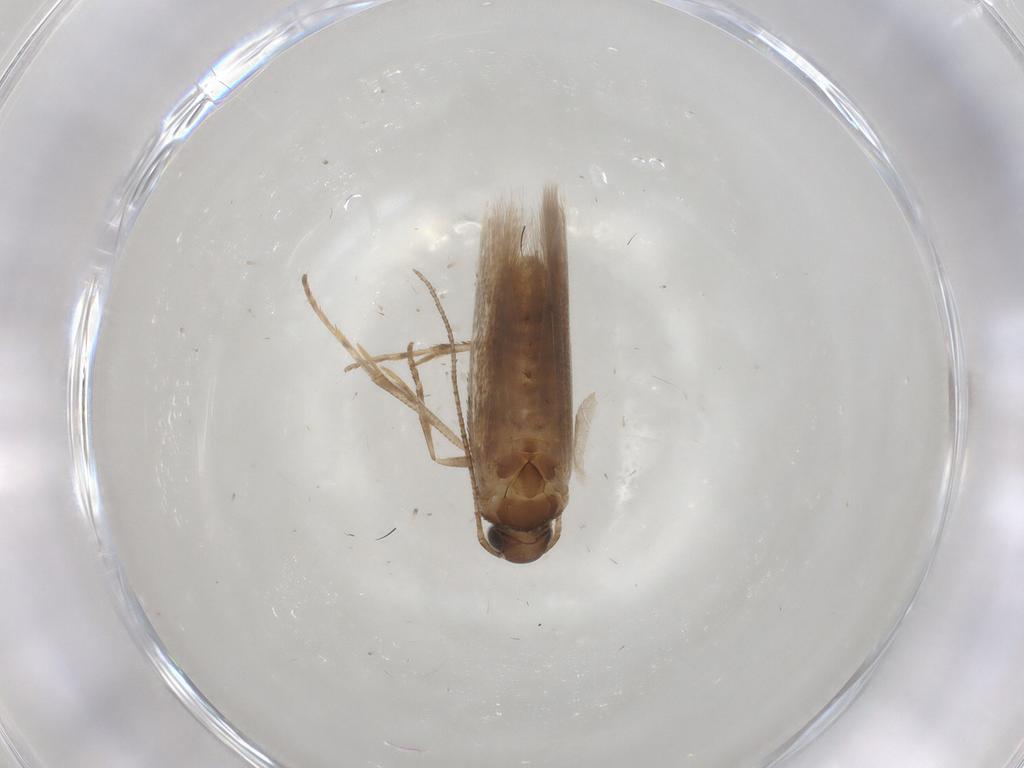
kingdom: Animalia
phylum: Arthropoda
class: Insecta
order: Lepidoptera
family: Gelechiidae
